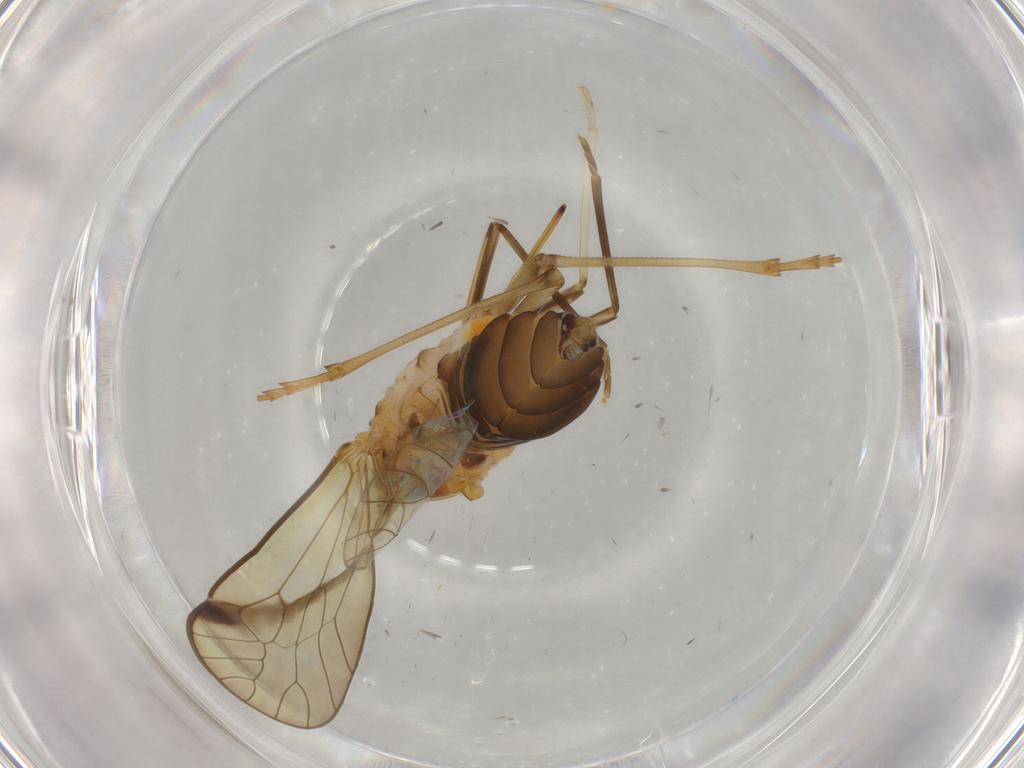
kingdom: Animalia
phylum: Arthropoda
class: Insecta
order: Hemiptera
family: Kinnaridae
